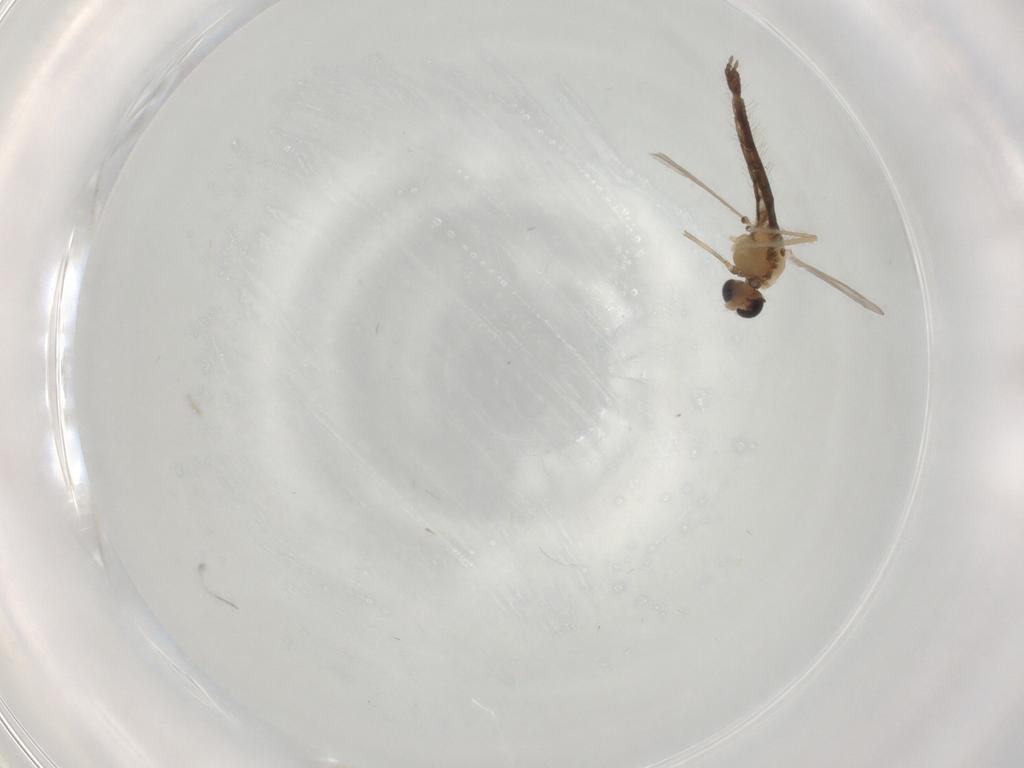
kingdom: Animalia
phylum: Arthropoda
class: Insecta
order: Diptera
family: Chironomidae
